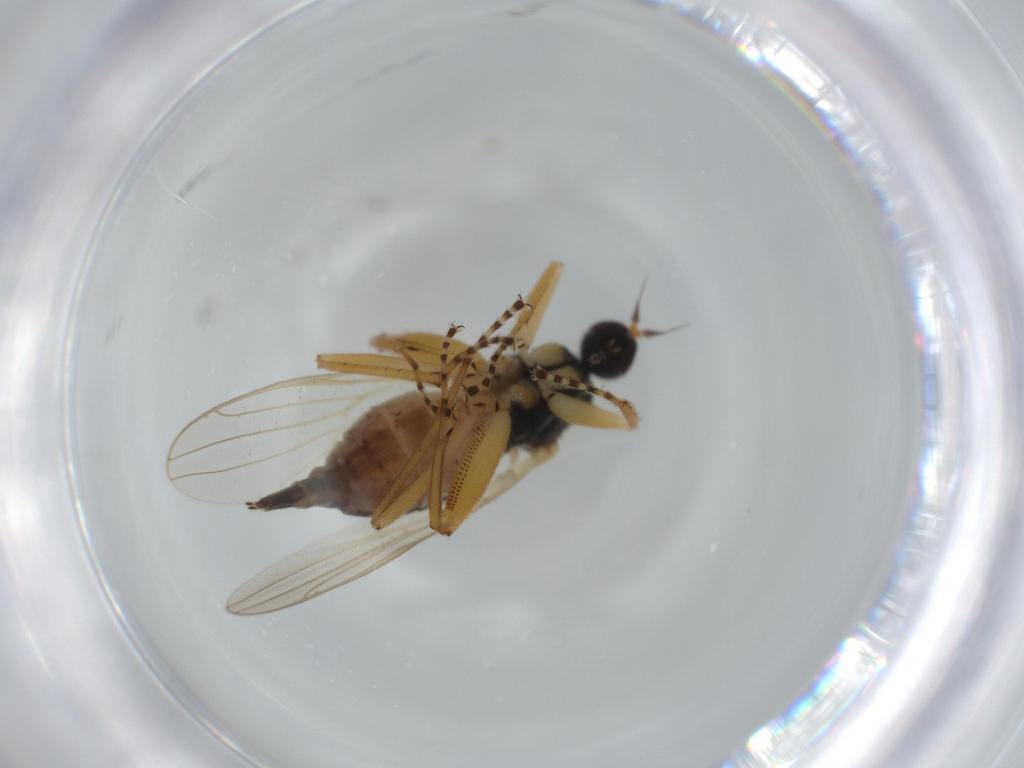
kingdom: Animalia
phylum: Arthropoda
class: Insecta
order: Diptera
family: Hybotidae
